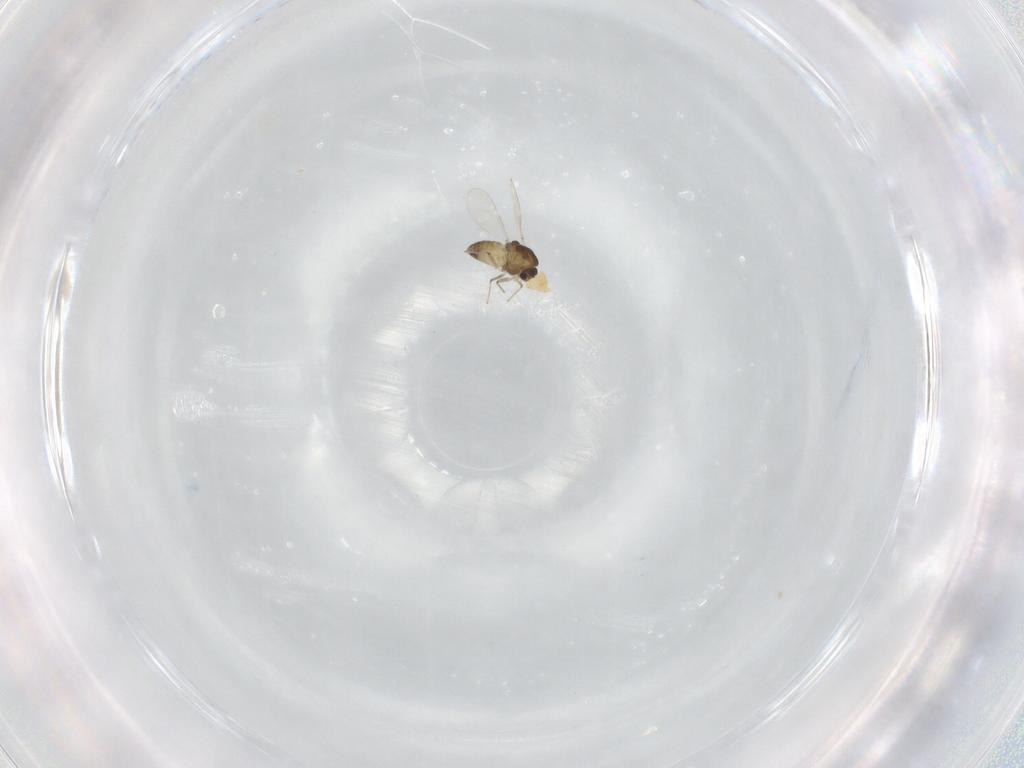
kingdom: Animalia
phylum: Arthropoda
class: Insecta
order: Diptera
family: Chironomidae
